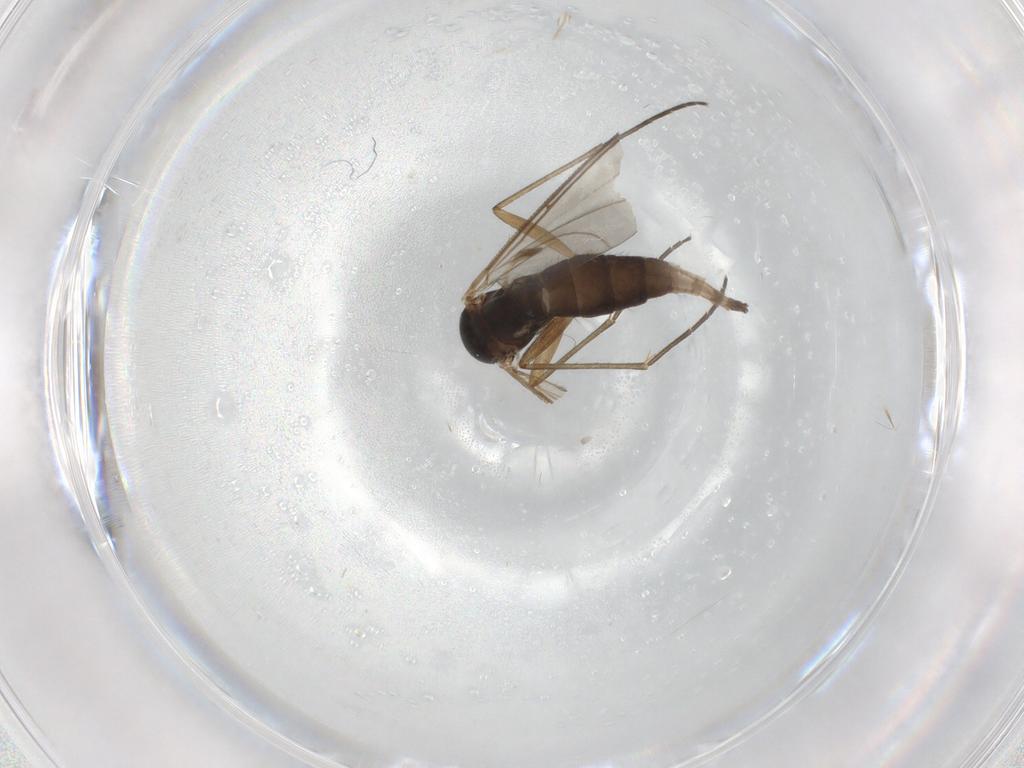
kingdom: Animalia
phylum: Arthropoda
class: Insecta
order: Diptera
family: Sciaridae
